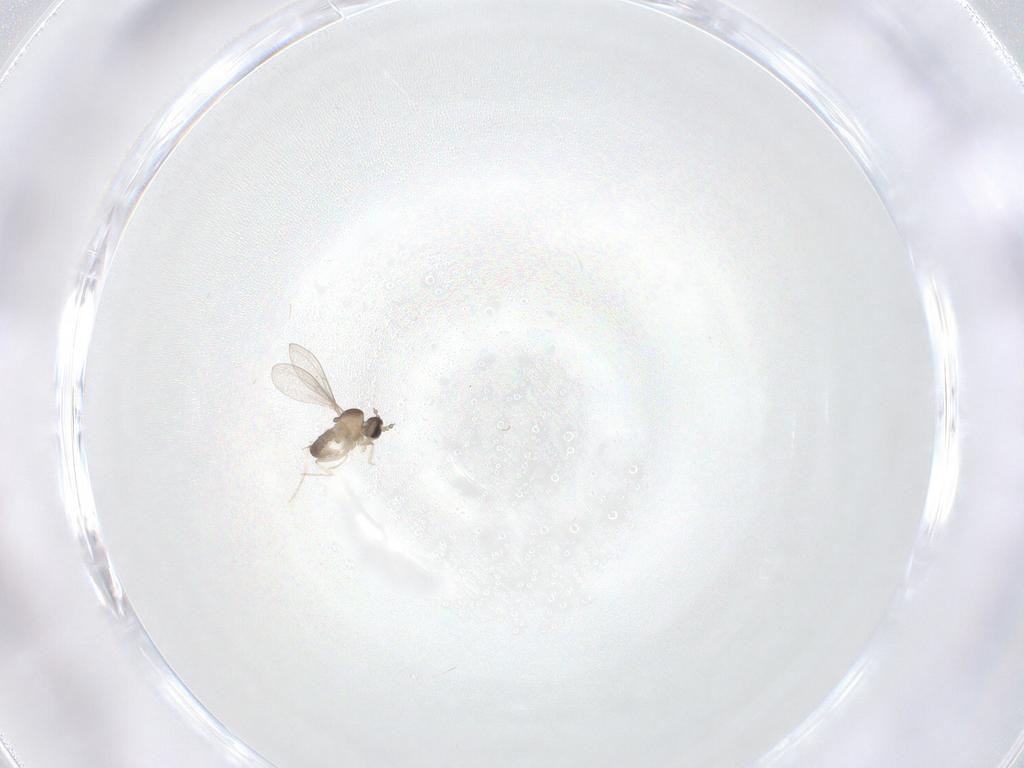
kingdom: Animalia
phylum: Arthropoda
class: Insecta
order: Diptera
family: Cecidomyiidae
